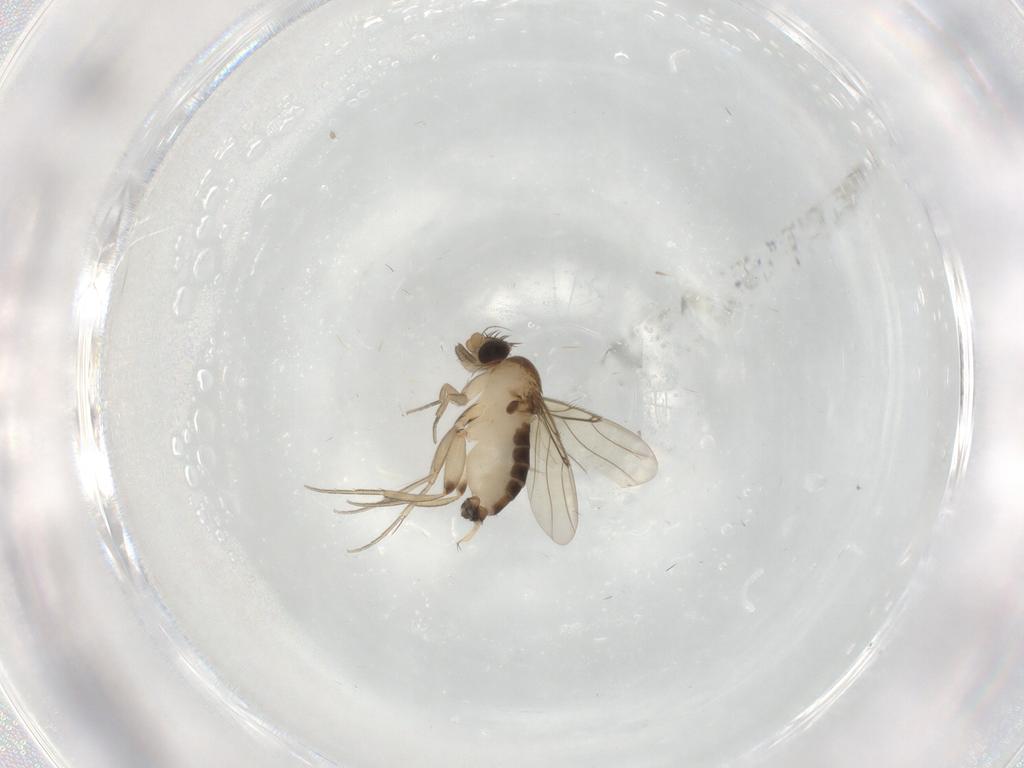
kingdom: Animalia
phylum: Arthropoda
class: Insecta
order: Diptera
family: Phoridae
